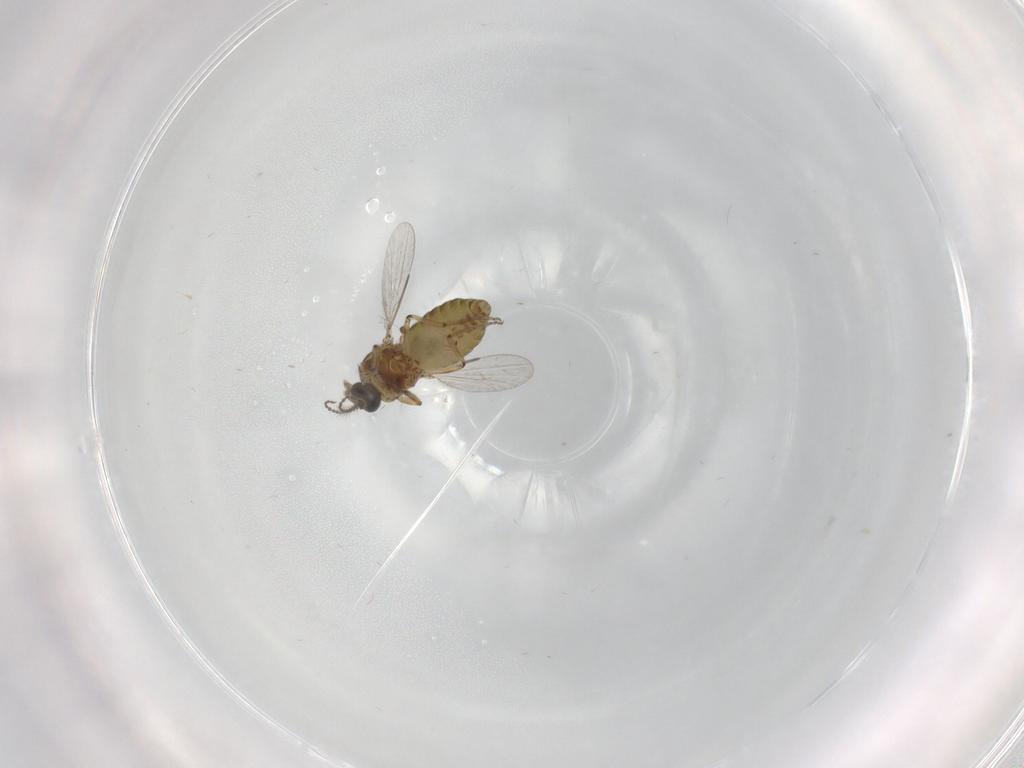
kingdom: Animalia
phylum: Arthropoda
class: Insecta
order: Diptera
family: Ceratopogonidae
